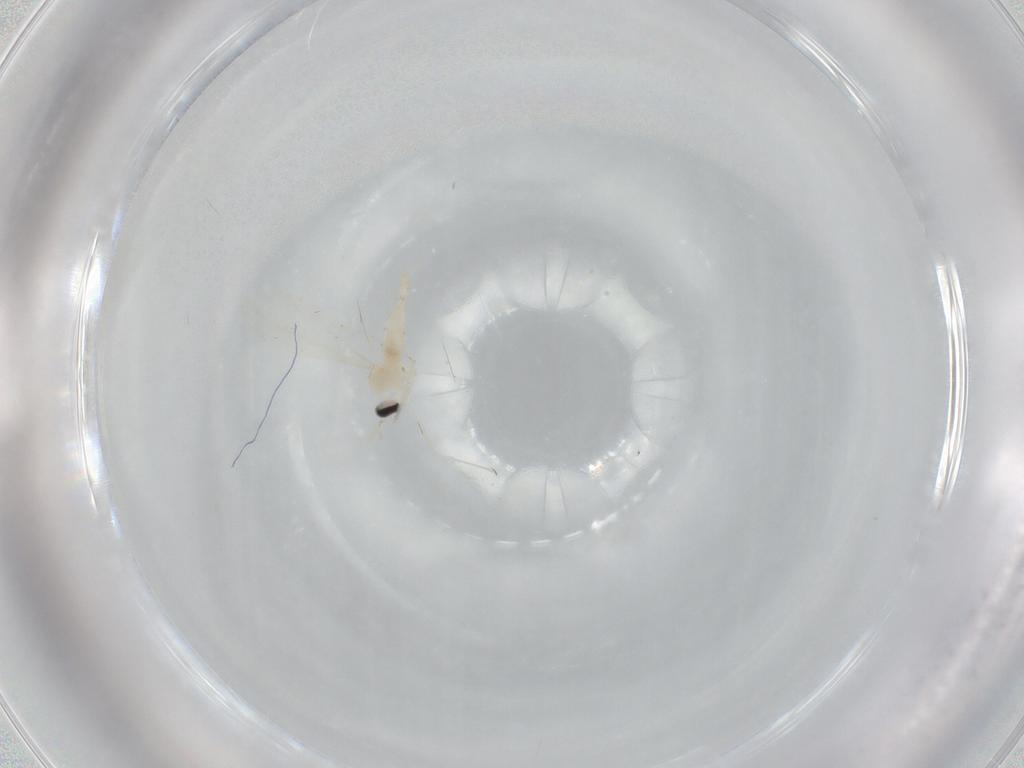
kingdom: Animalia
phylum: Arthropoda
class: Insecta
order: Diptera
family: Cecidomyiidae
